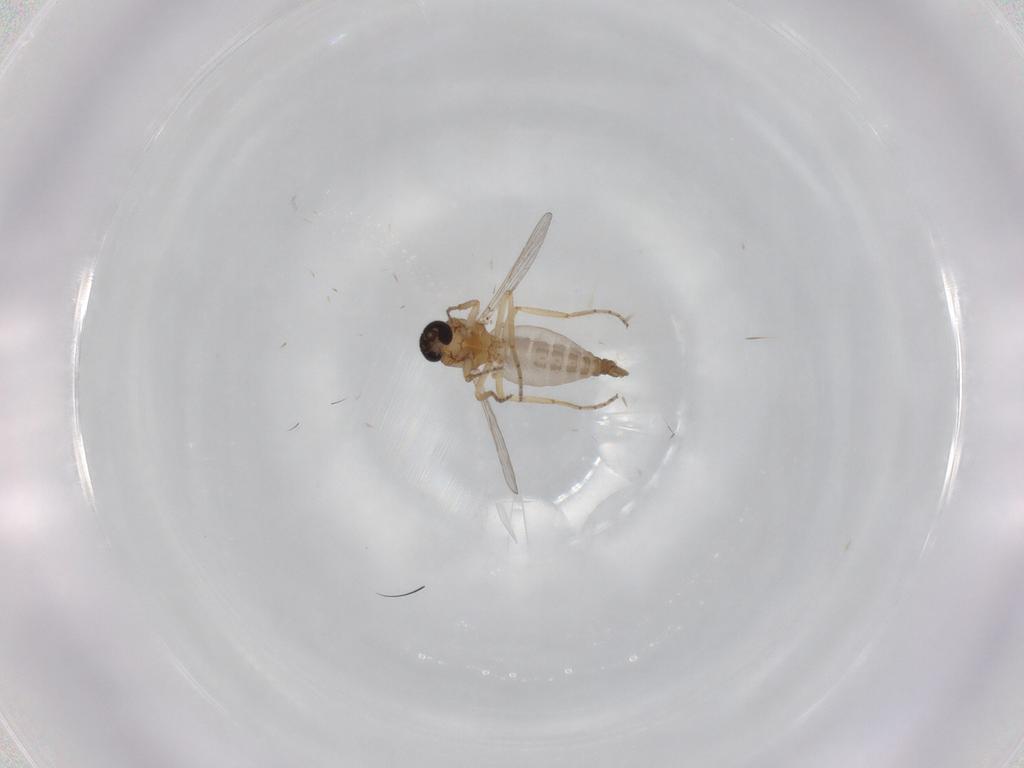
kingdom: Animalia
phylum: Arthropoda
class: Insecta
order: Diptera
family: Ceratopogonidae
